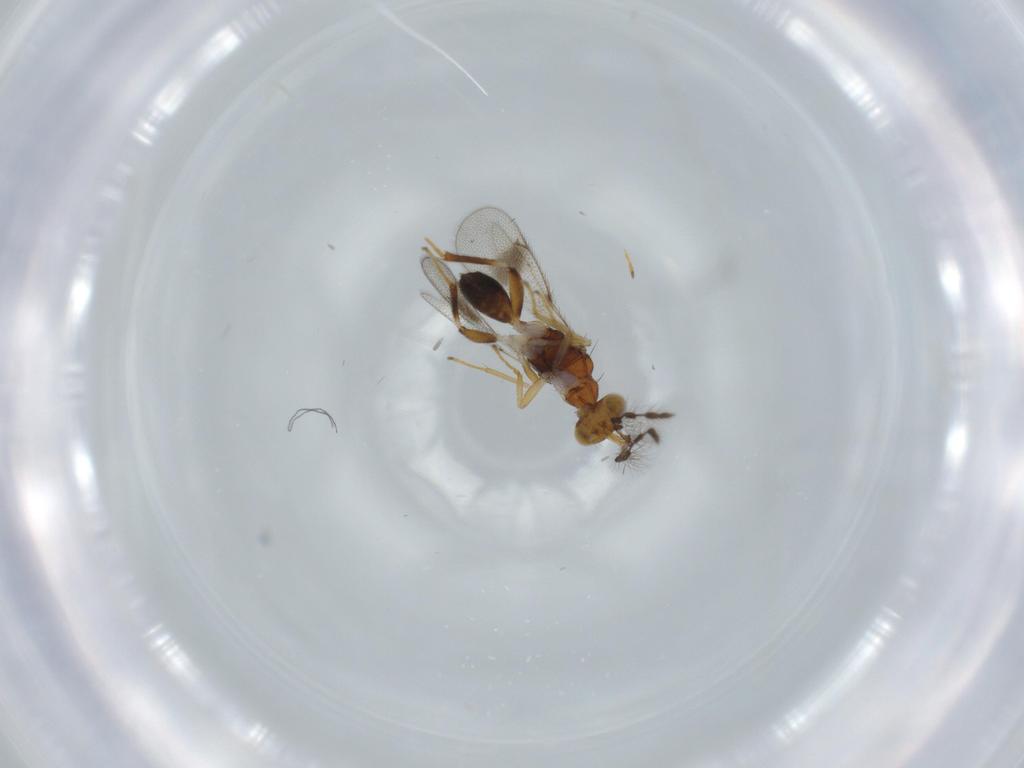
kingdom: Animalia
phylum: Arthropoda
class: Insecta
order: Hymenoptera
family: Eulophidae
